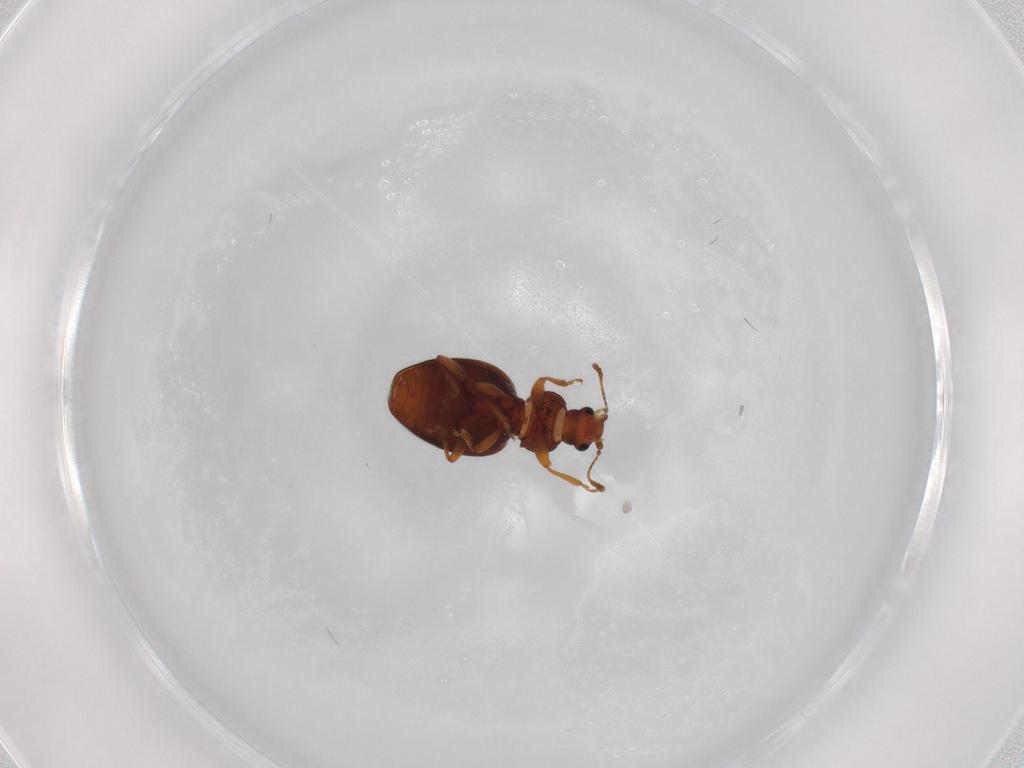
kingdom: Animalia
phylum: Arthropoda
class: Insecta
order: Coleoptera
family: Latridiidae
